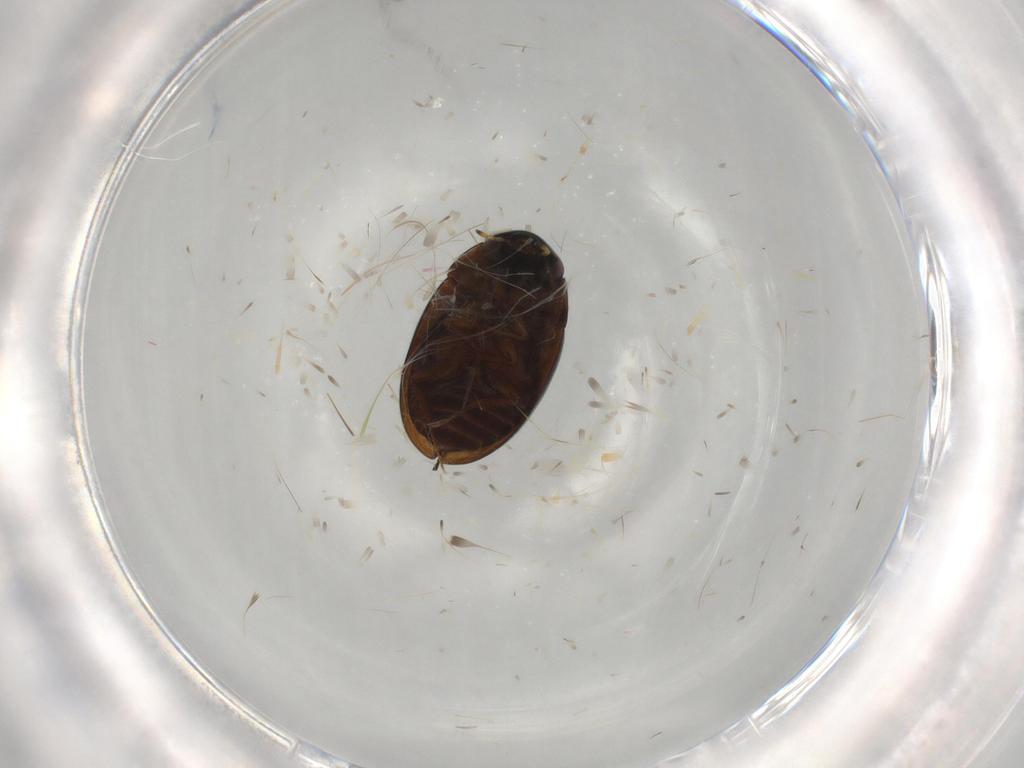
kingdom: Animalia
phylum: Arthropoda
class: Insecta
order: Coleoptera
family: Hydrophilidae
